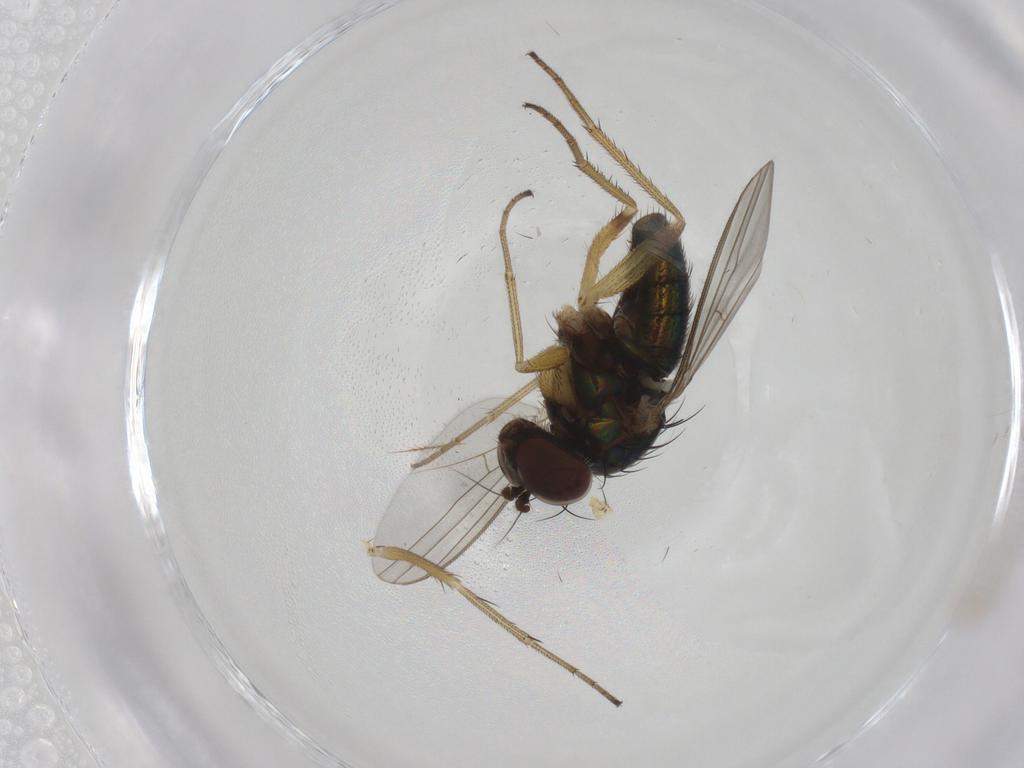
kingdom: Animalia
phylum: Arthropoda
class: Insecta
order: Diptera
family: Dolichopodidae
